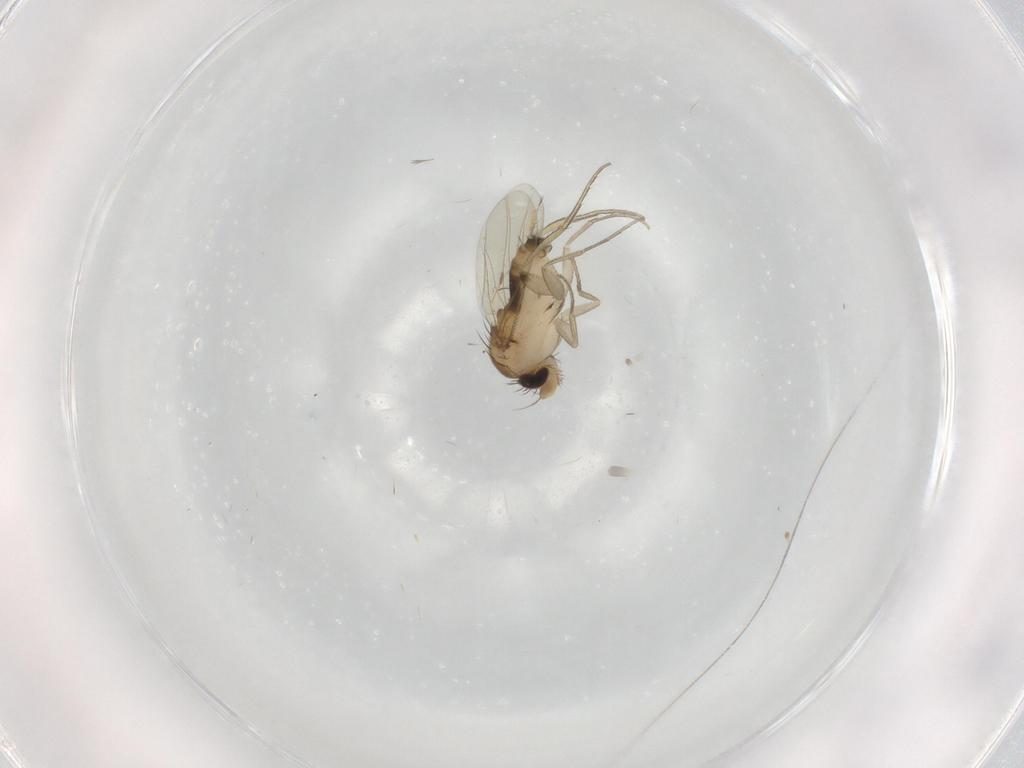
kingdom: Animalia
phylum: Arthropoda
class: Insecta
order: Diptera
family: Phoridae
